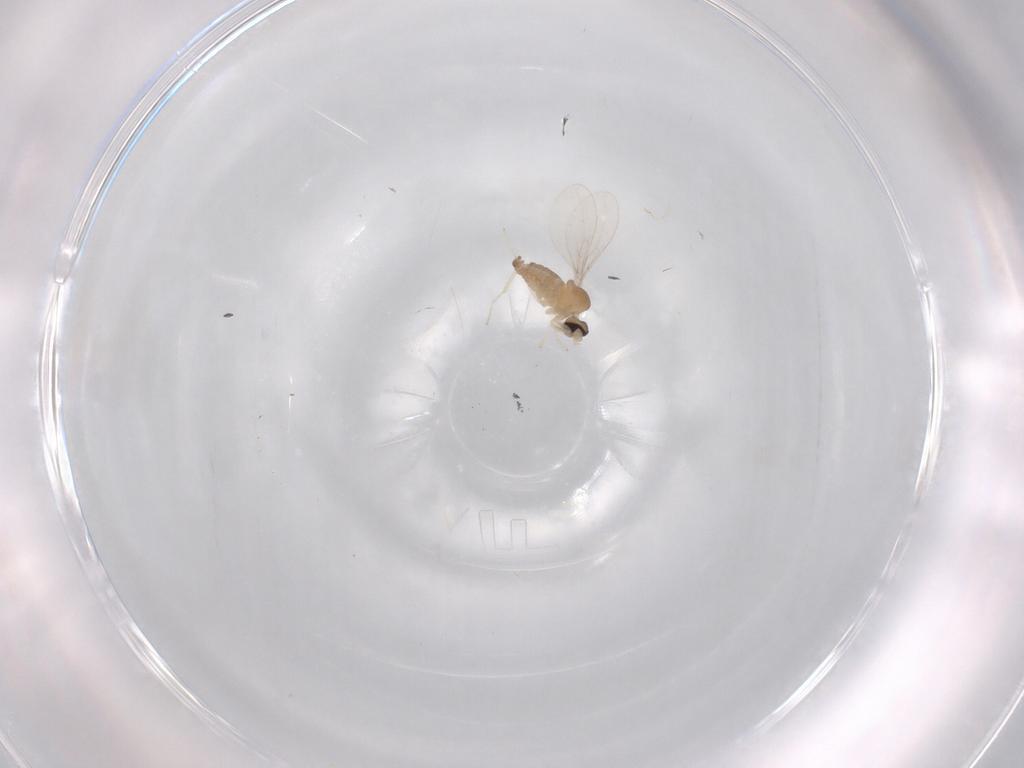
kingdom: Animalia
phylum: Arthropoda
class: Insecta
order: Diptera
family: Cecidomyiidae
